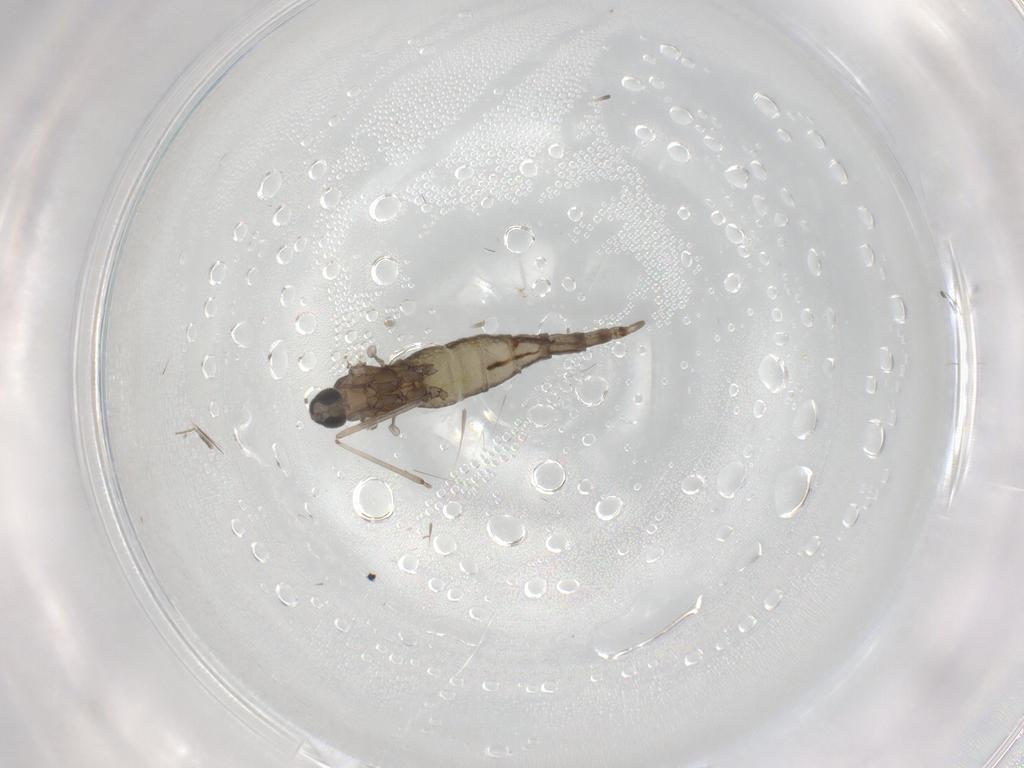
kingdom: Animalia
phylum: Arthropoda
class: Insecta
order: Diptera
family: Cecidomyiidae
